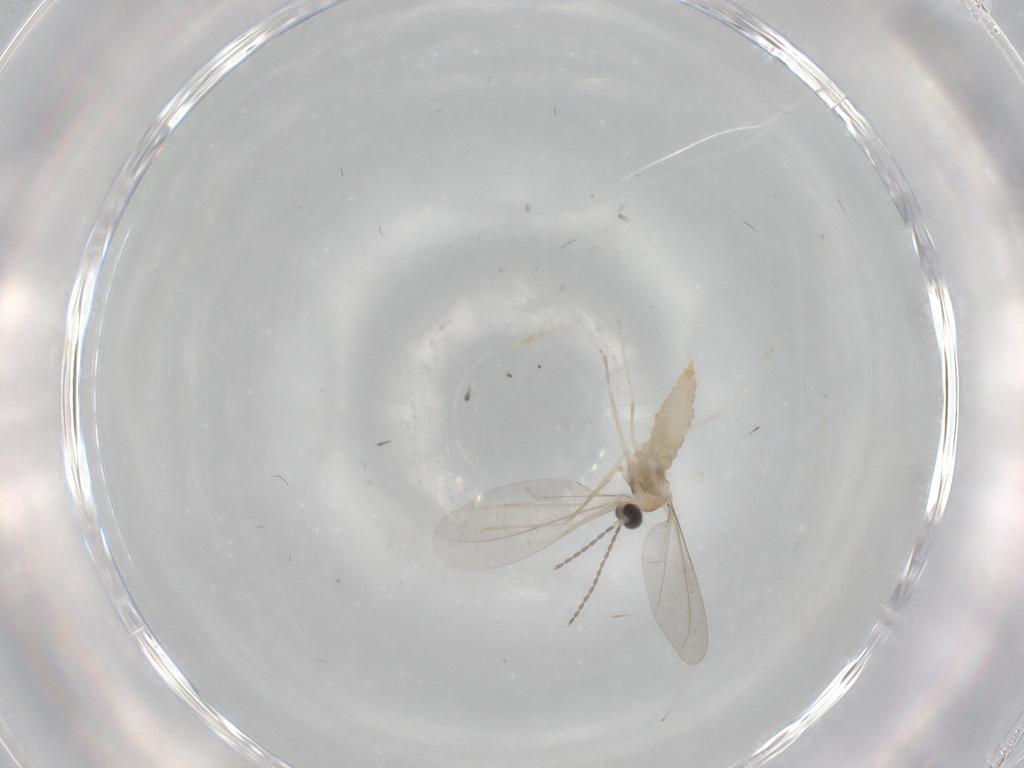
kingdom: Animalia
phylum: Arthropoda
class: Insecta
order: Diptera
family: Cecidomyiidae
